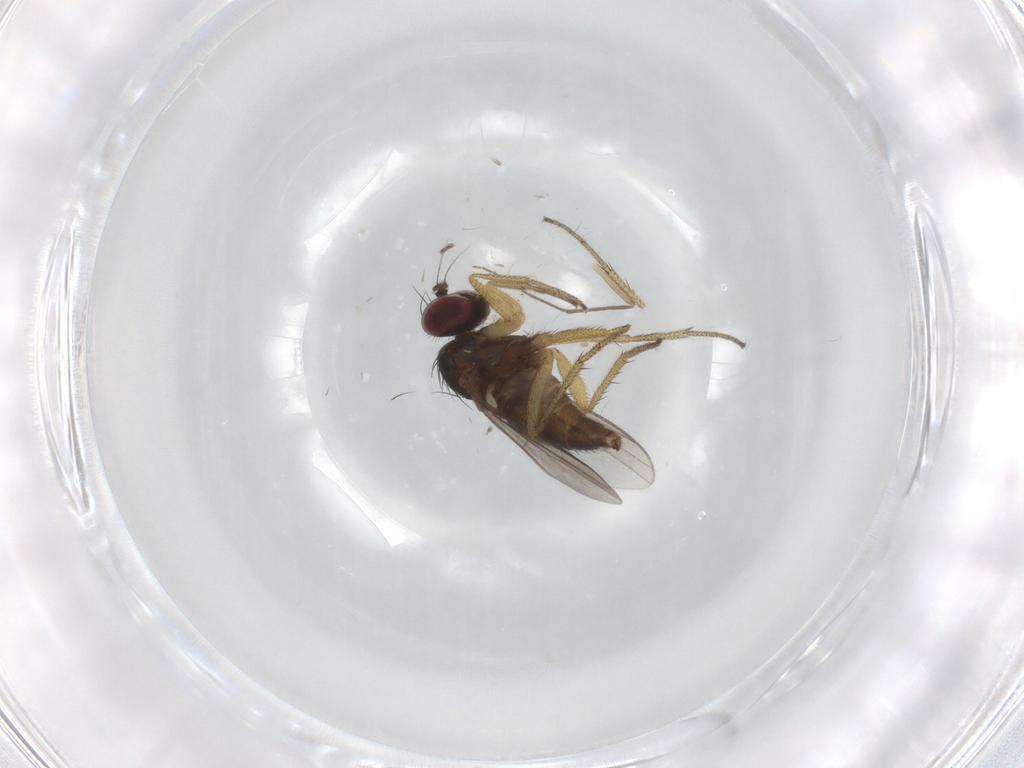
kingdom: Animalia
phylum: Arthropoda
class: Insecta
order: Diptera
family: Chironomidae
